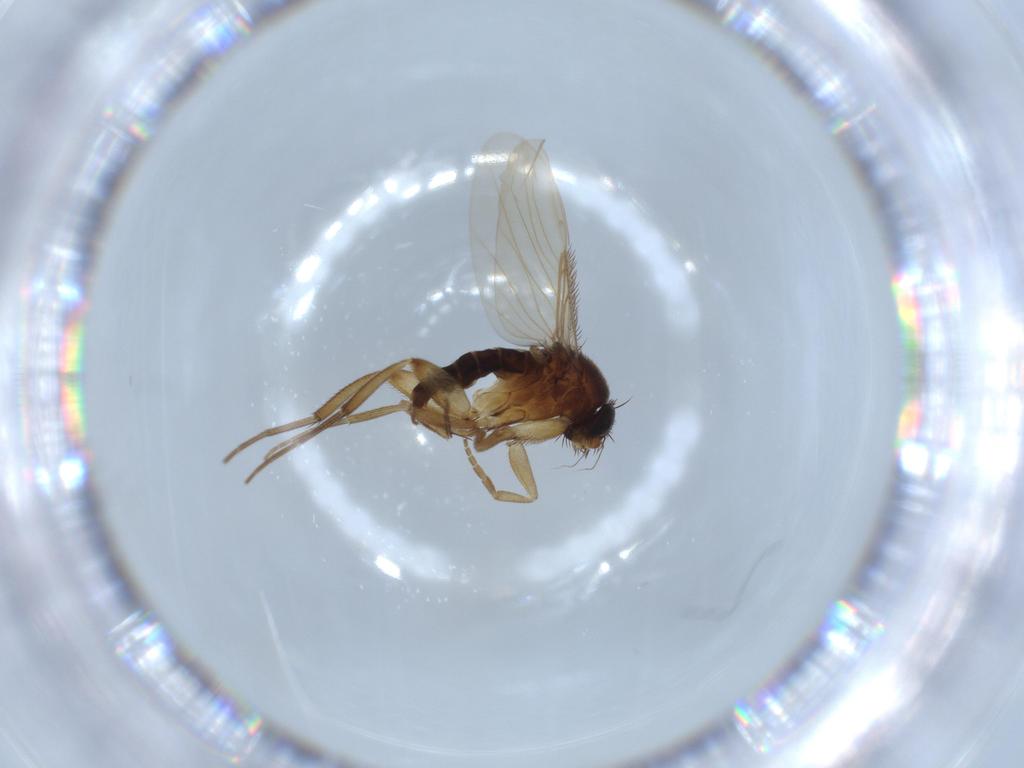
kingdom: Animalia
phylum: Arthropoda
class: Insecta
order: Diptera
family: Phoridae
